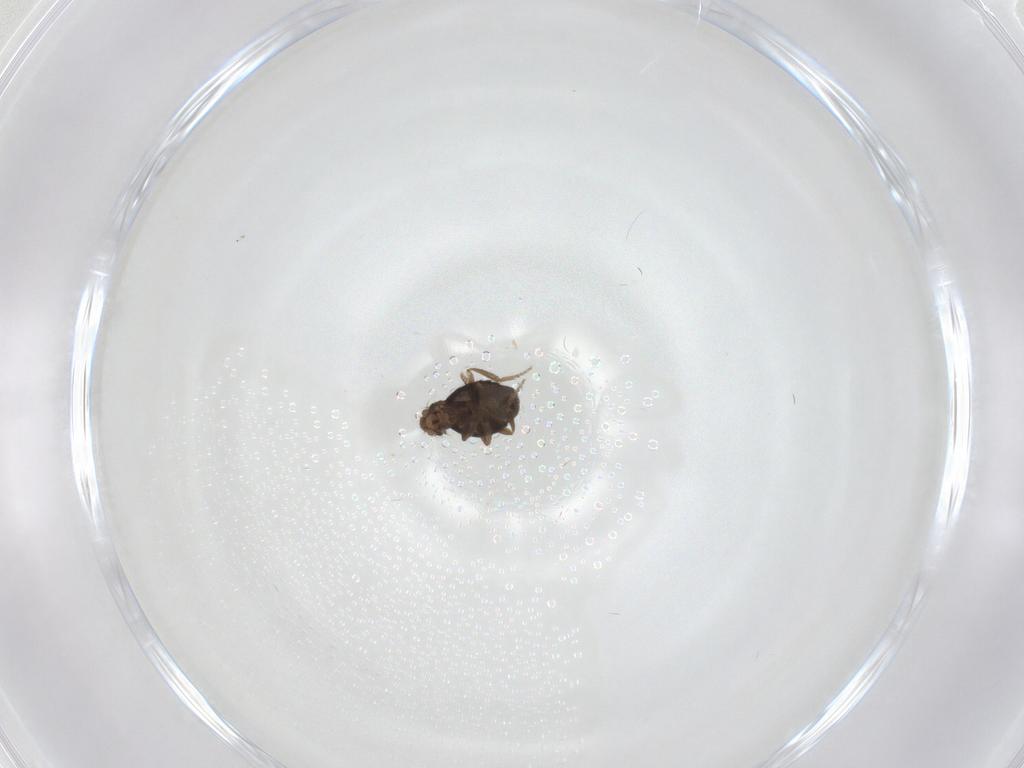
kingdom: Animalia
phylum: Arthropoda
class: Insecta
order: Diptera
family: Phoridae
